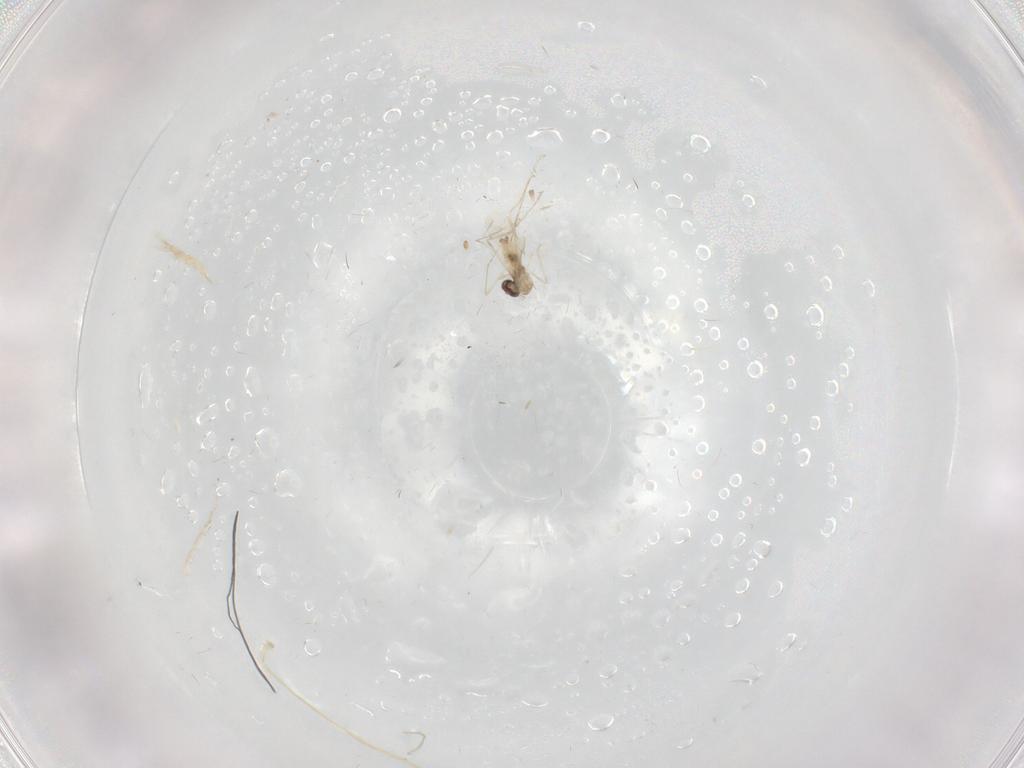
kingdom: Animalia
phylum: Arthropoda
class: Insecta
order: Diptera
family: Chironomidae
